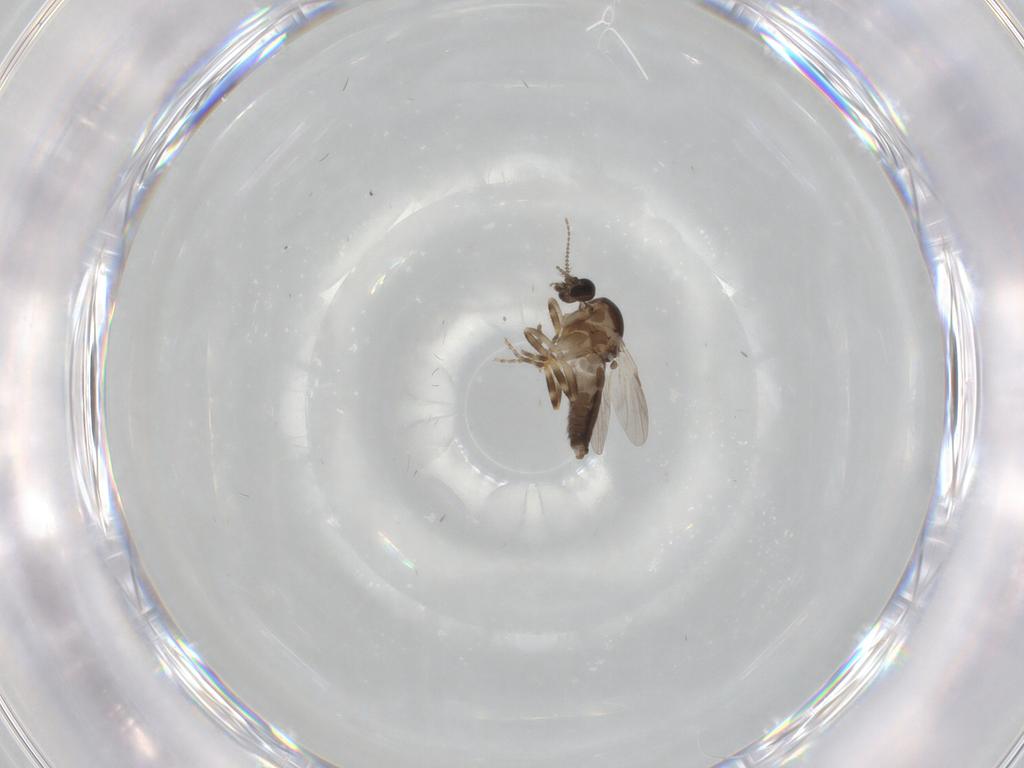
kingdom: Animalia
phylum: Arthropoda
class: Insecta
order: Diptera
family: Ceratopogonidae
